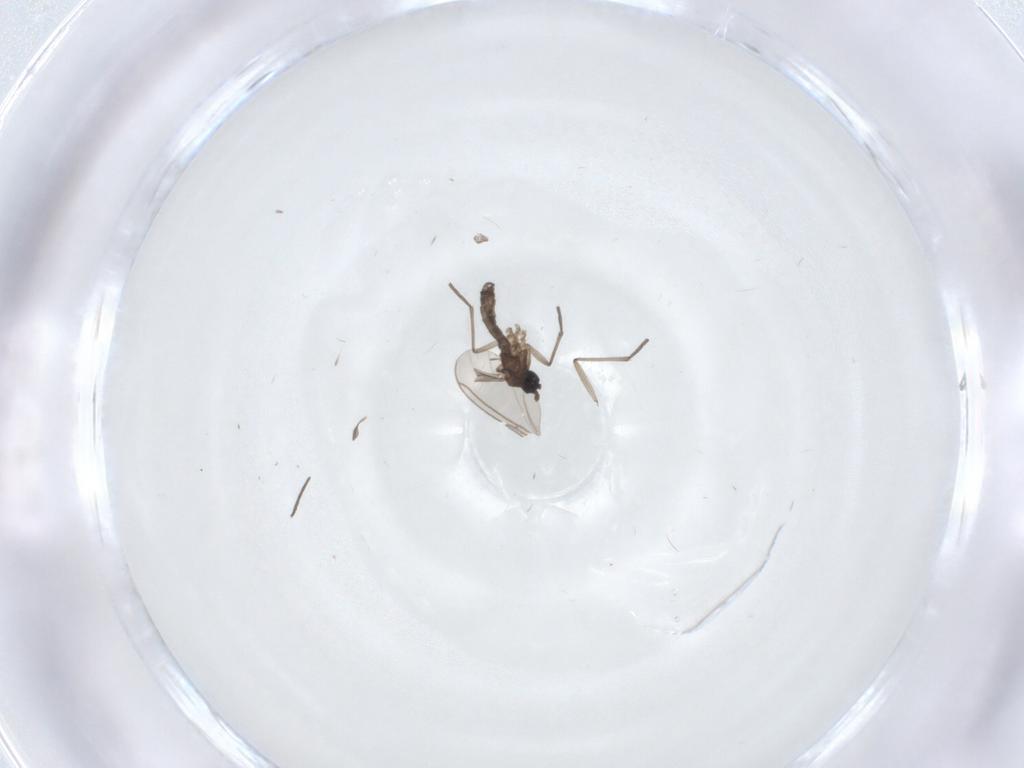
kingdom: Animalia
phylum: Arthropoda
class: Insecta
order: Diptera
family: Sciaridae
